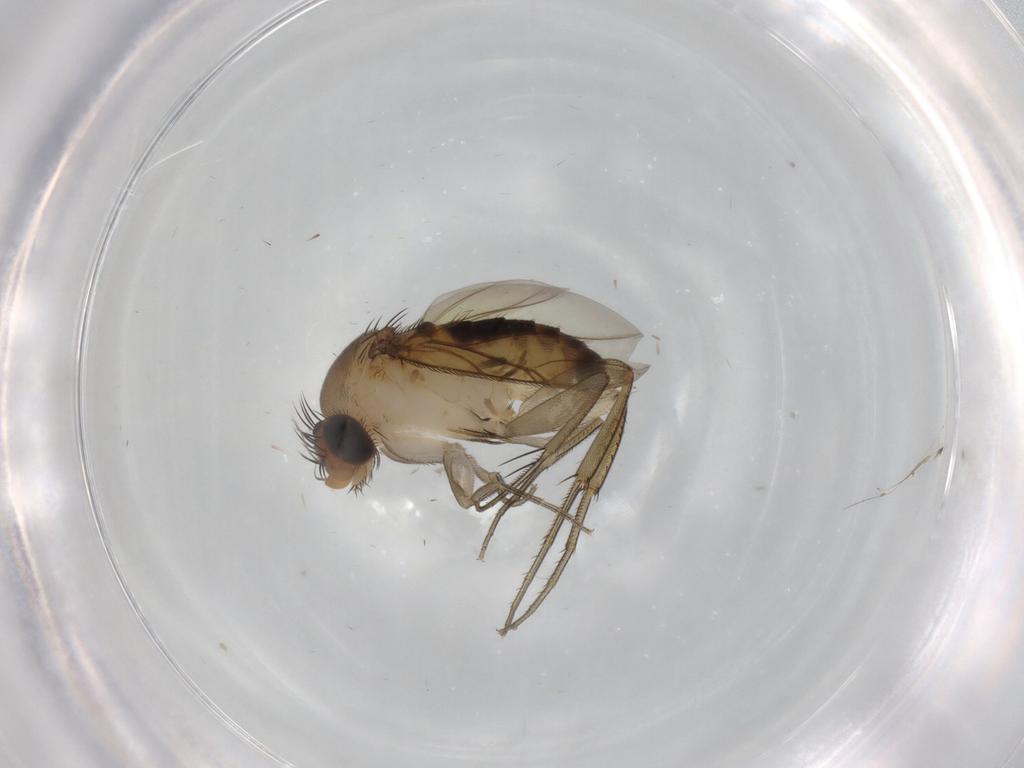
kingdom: Animalia
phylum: Arthropoda
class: Insecta
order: Diptera
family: Phoridae
